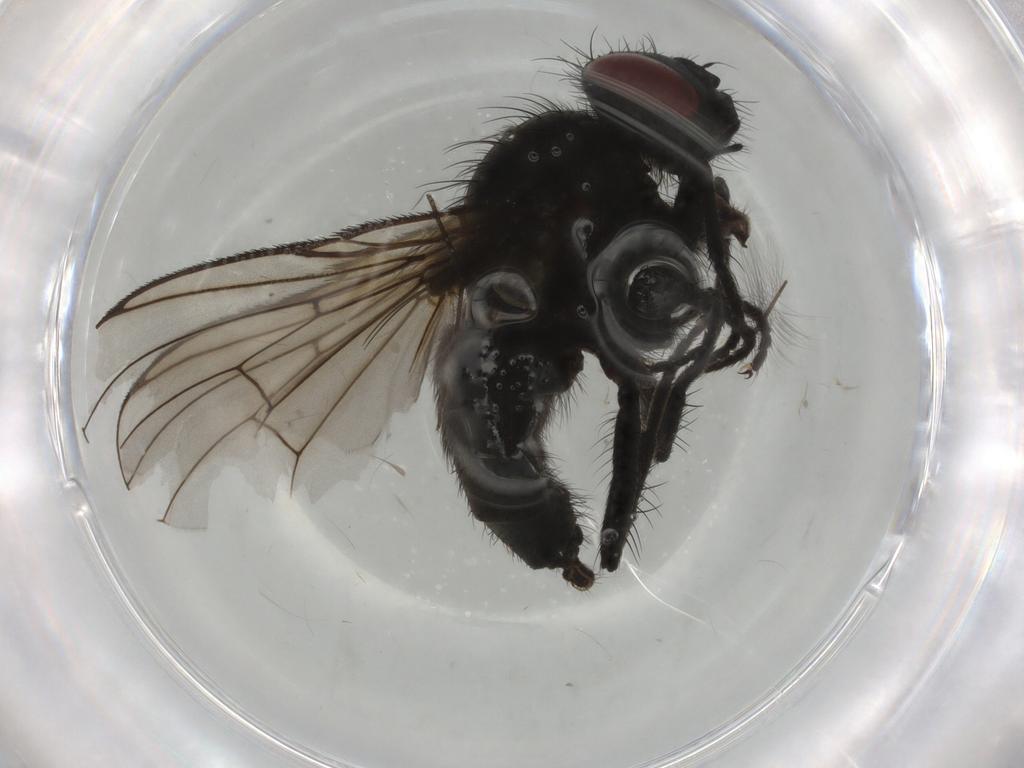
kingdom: Animalia
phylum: Arthropoda
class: Insecta
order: Diptera
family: Muscidae
